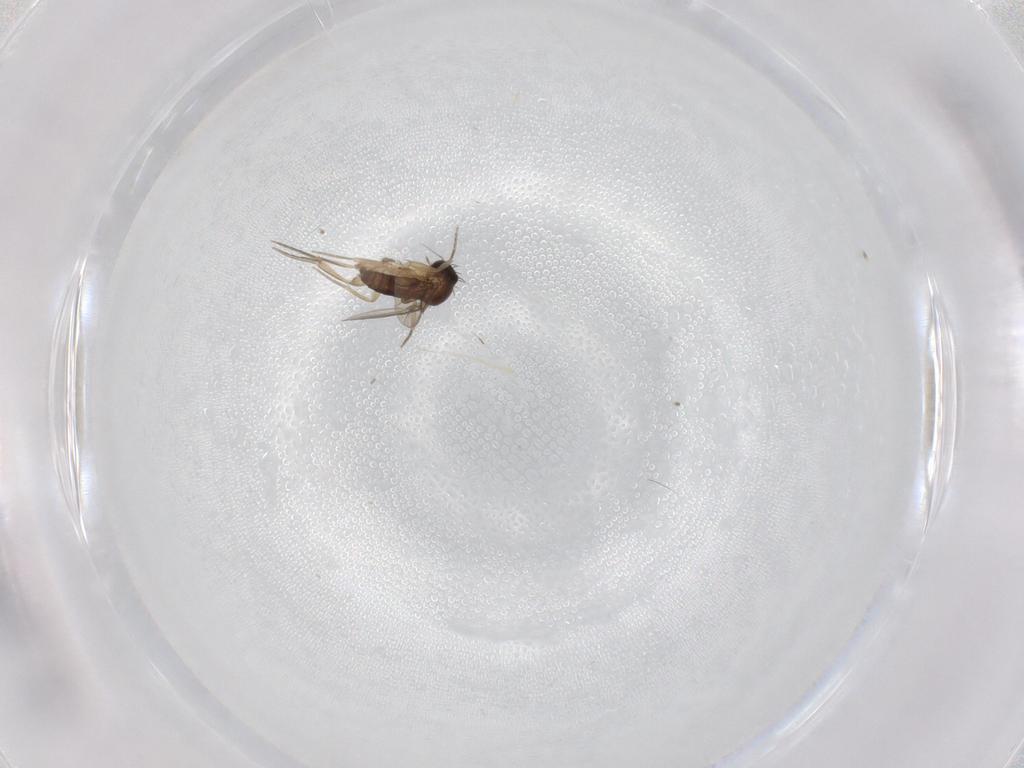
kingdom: Animalia
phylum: Arthropoda
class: Insecta
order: Diptera
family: Phoridae
